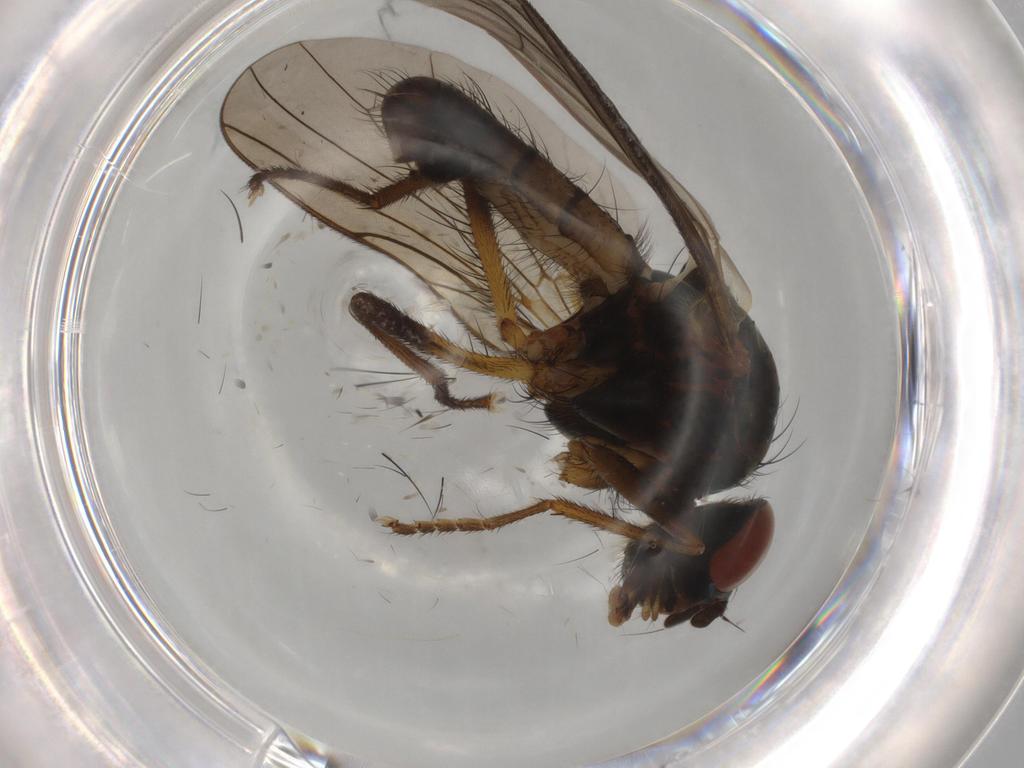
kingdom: Animalia
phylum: Arthropoda
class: Insecta
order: Diptera
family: Anthomyiidae
